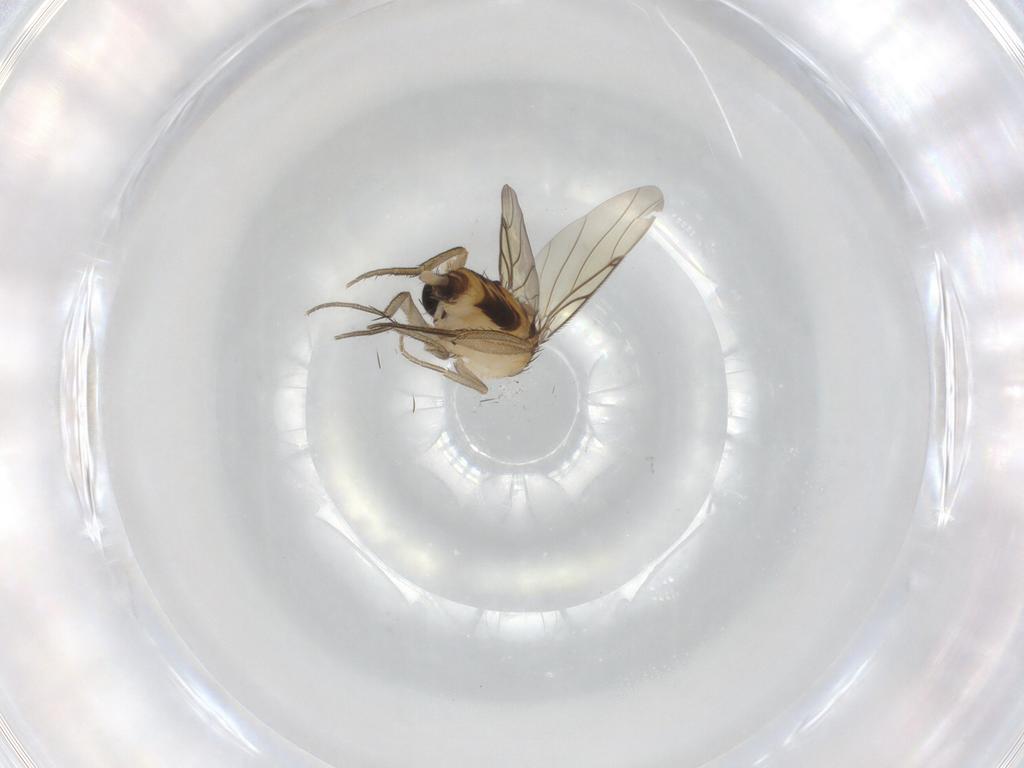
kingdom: Animalia
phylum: Arthropoda
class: Insecta
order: Diptera
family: Phoridae
